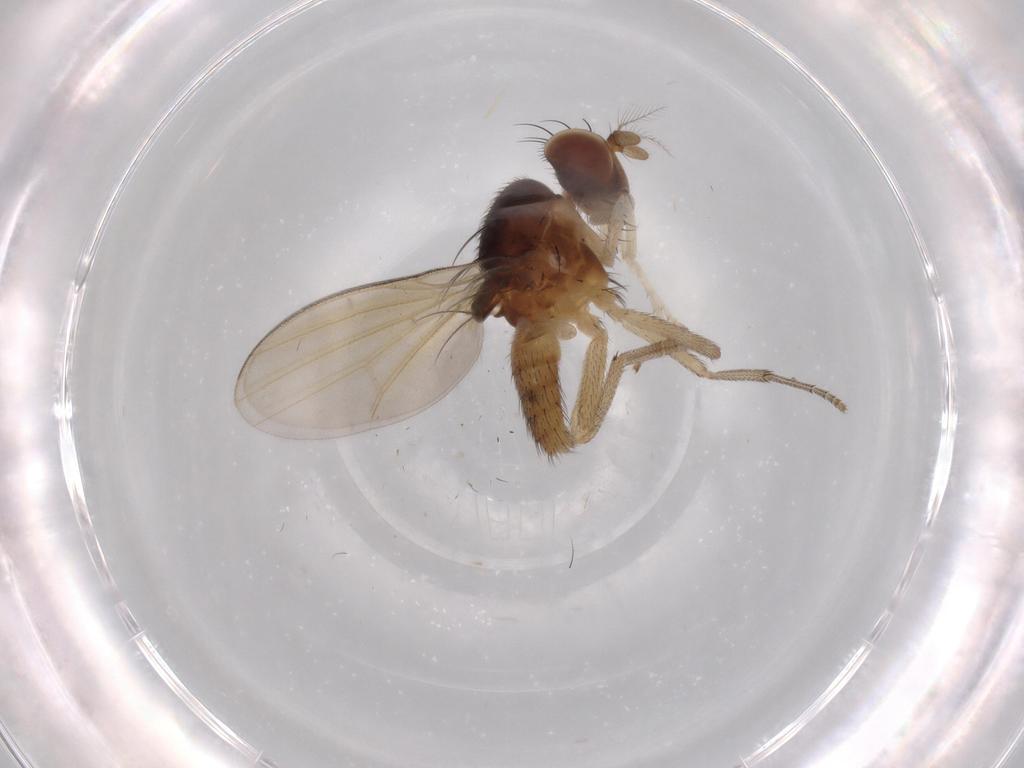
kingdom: Animalia
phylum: Arthropoda
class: Insecta
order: Diptera
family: Lauxaniidae
